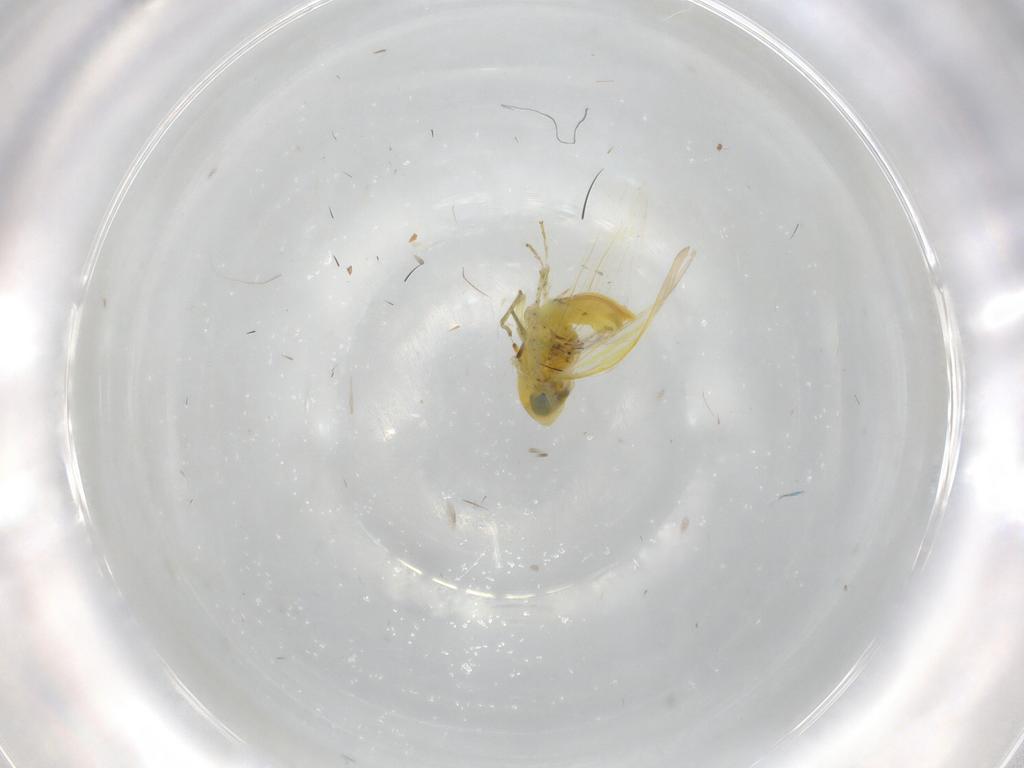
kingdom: Animalia
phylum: Arthropoda
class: Insecta
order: Hemiptera
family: Cicadellidae
